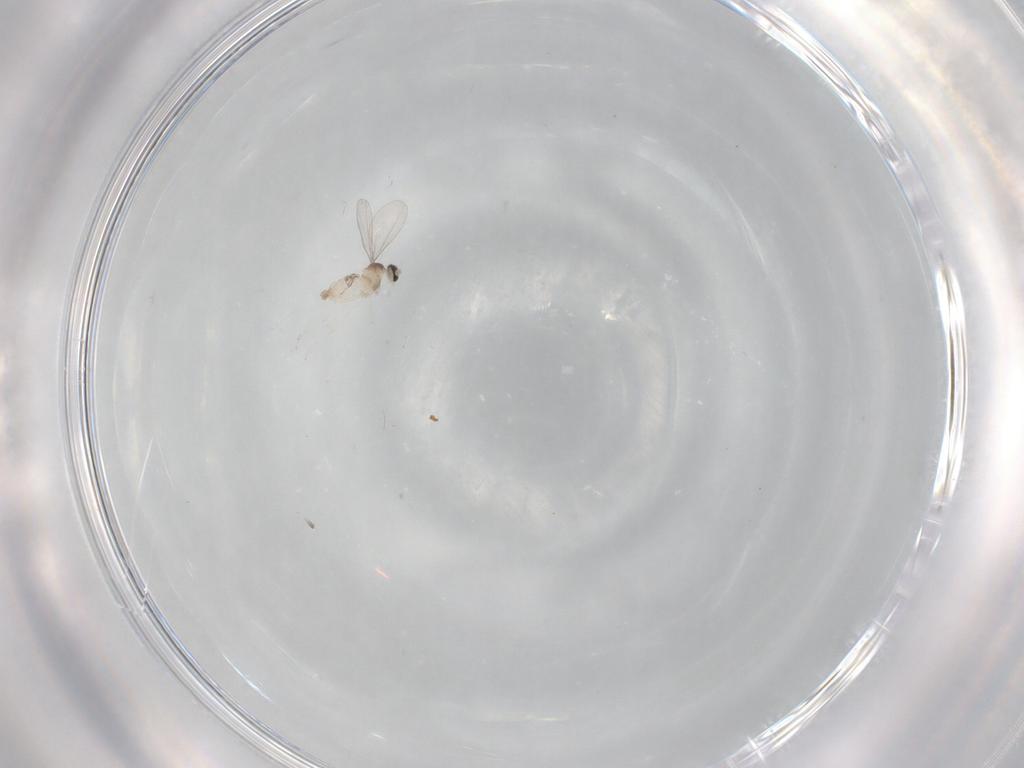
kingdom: Animalia
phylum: Arthropoda
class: Insecta
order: Diptera
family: Cecidomyiidae
